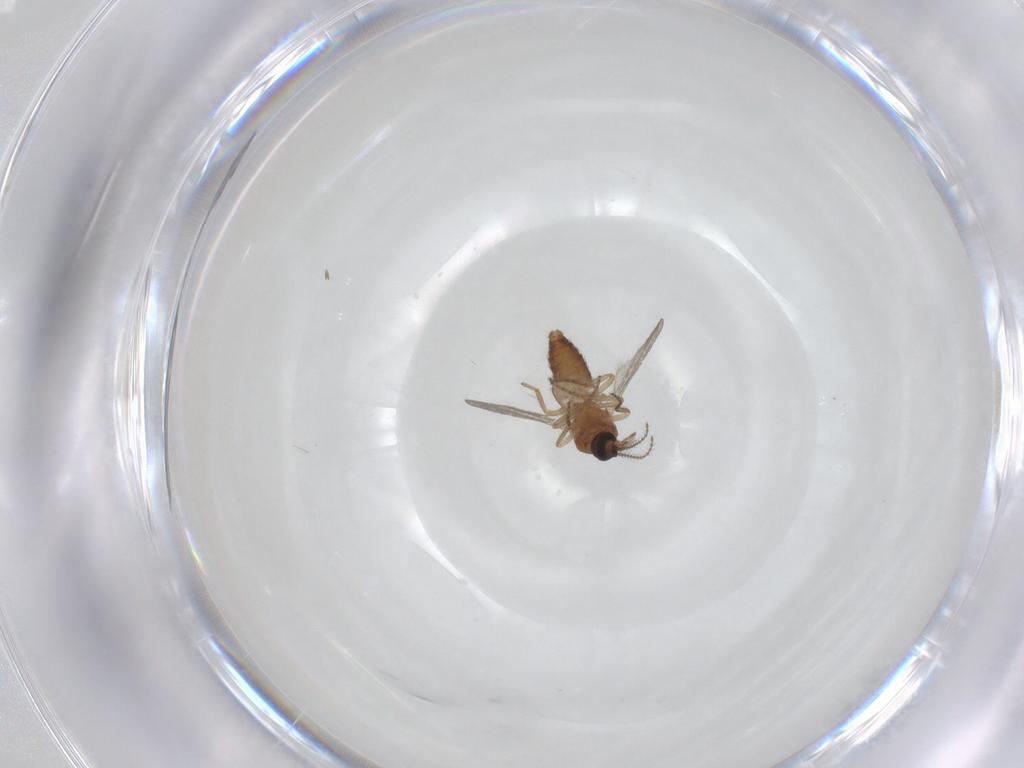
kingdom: Animalia
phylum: Arthropoda
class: Insecta
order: Diptera
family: Ceratopogonidae
